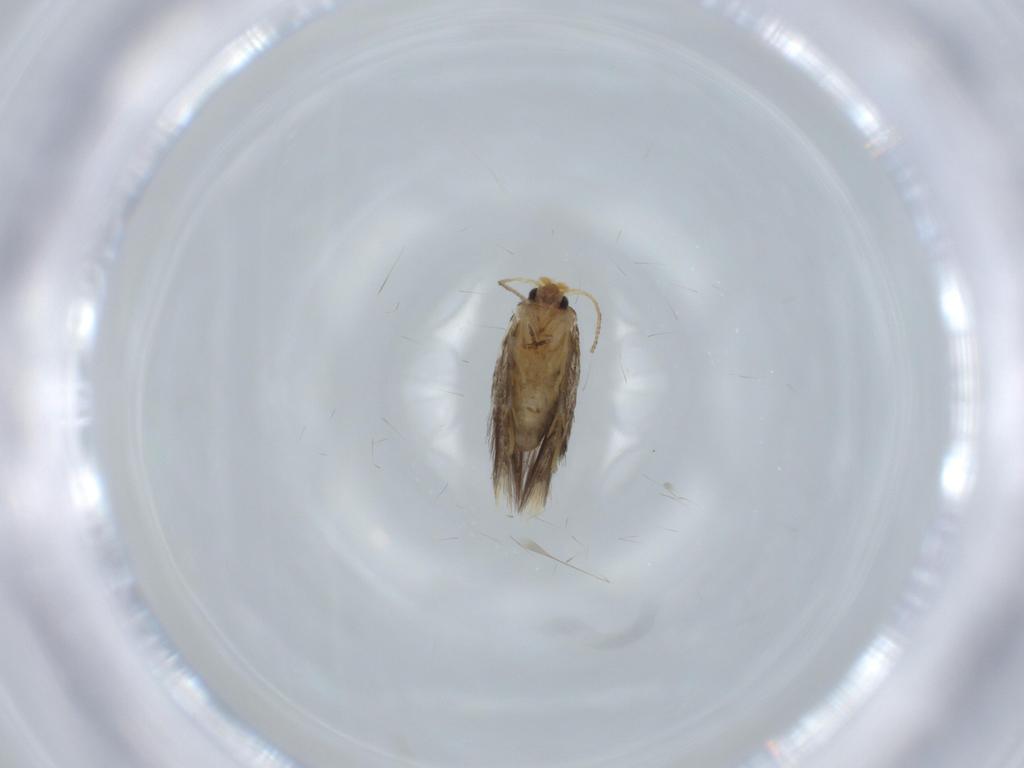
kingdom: Animalia
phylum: Arthropoda
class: Insecta
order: Lepidoptera
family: Nepticulidae
